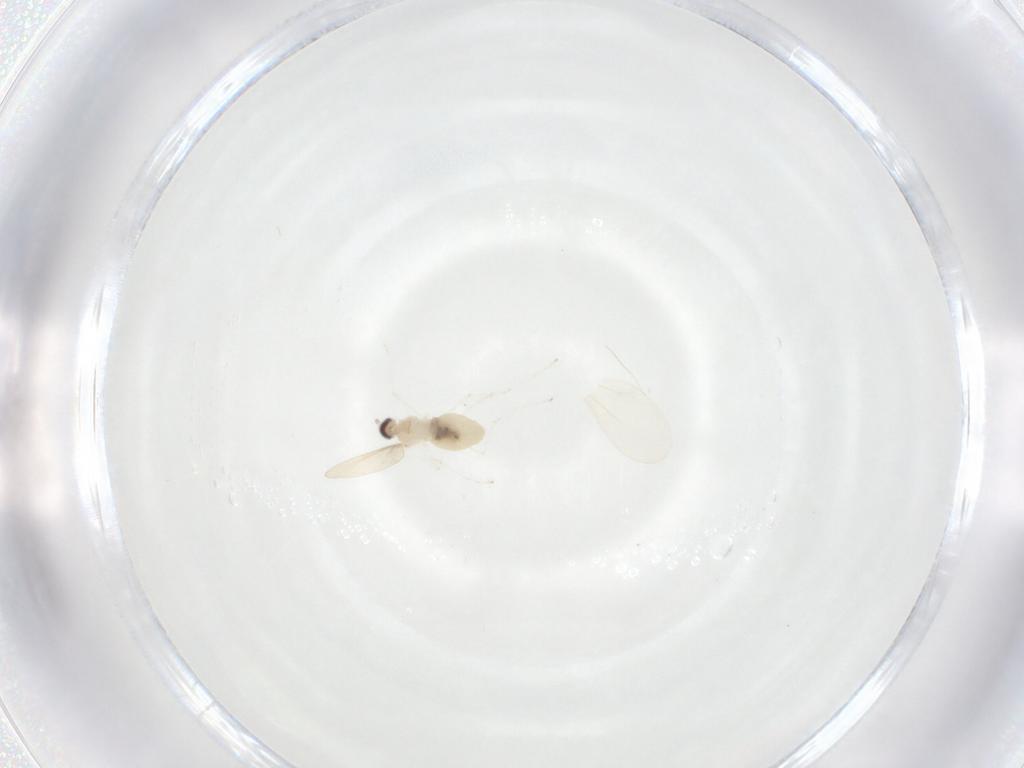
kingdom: Animalia
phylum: Arthropoda
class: Insecta
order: Diptera
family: Cecidomyiidae
